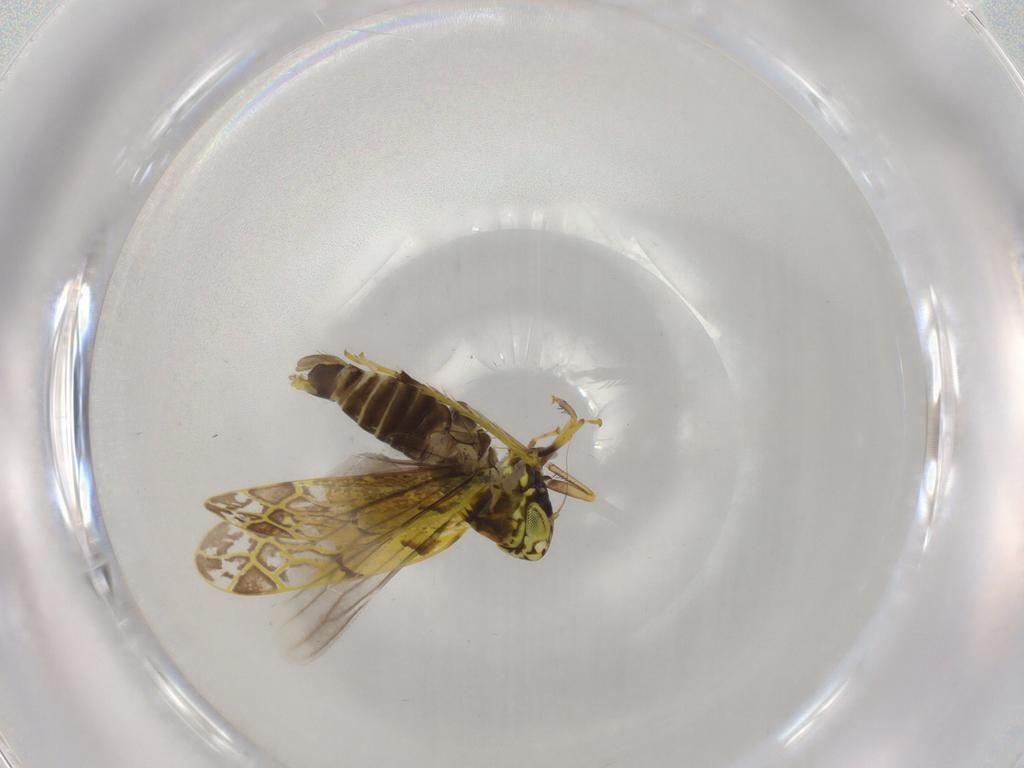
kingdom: Animalia
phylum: Arthropoda
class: Insecta
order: Hemiptera
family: Cicadellidae
